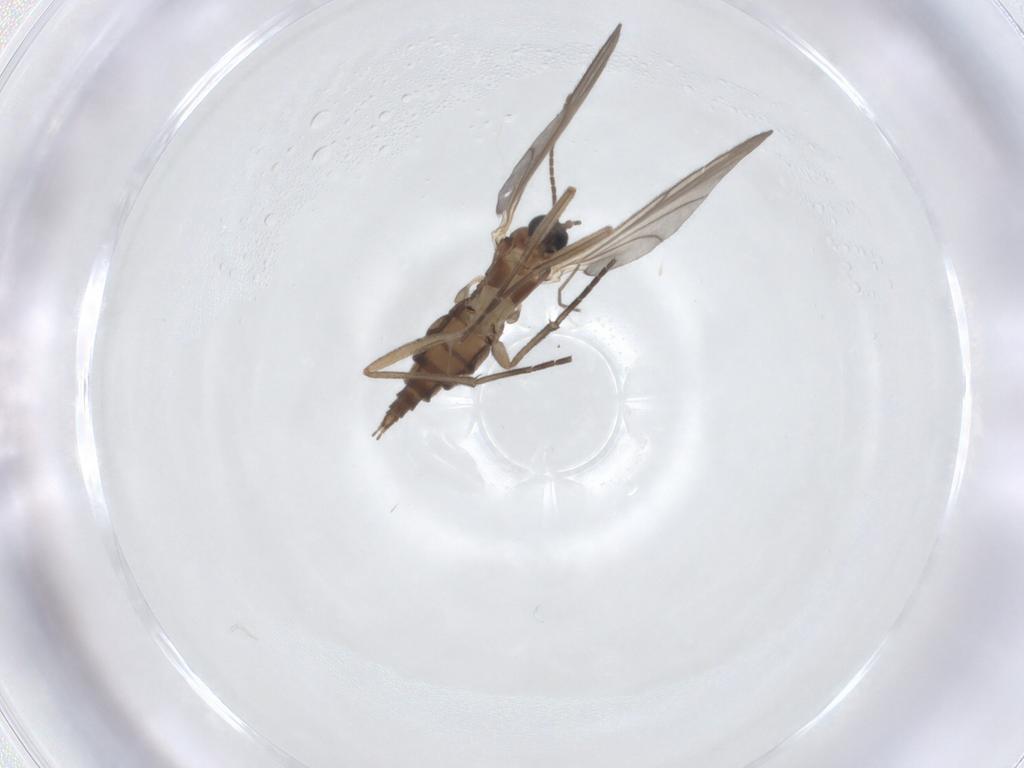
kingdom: Animalia
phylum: Arthropoda
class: Insecta
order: Diptera
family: Sciaridae
